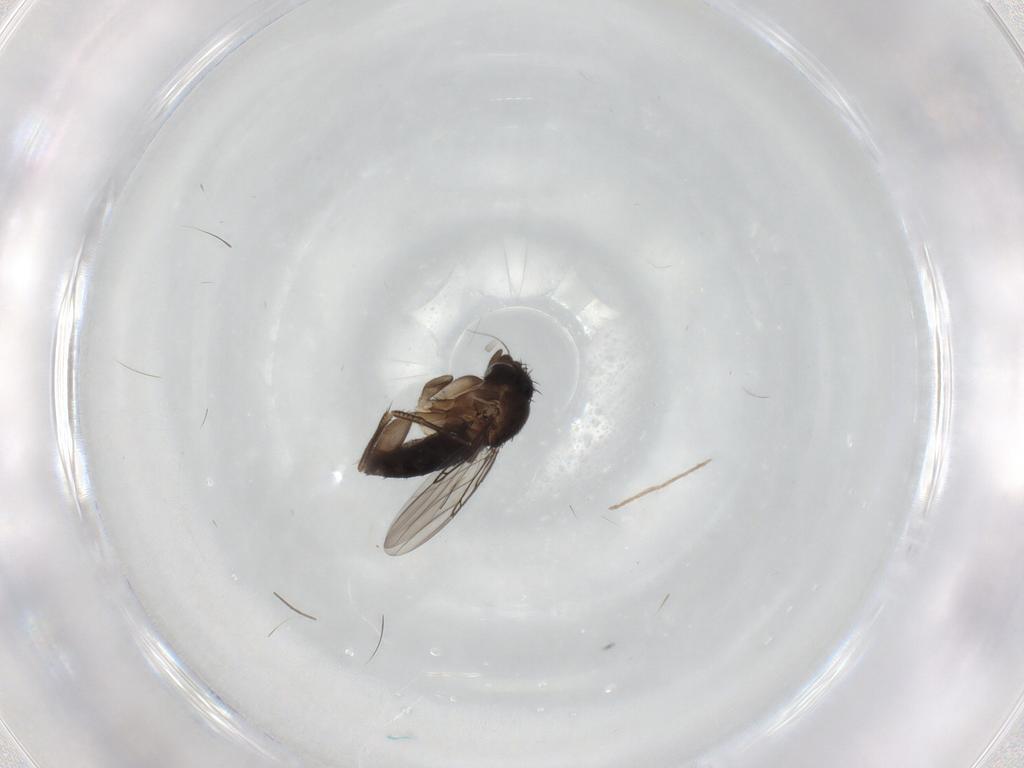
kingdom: Animalia
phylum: Arthropoda
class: Insecta
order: Diptera
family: Phoridae
